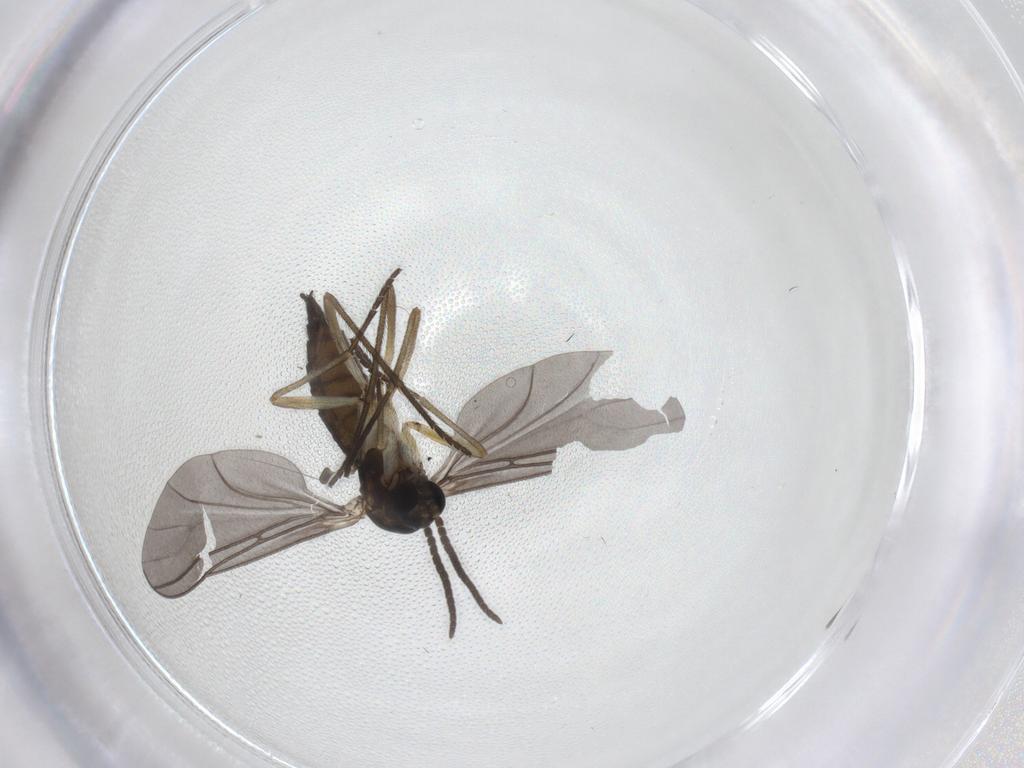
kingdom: Animalia
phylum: Arthropoda
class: Insecta
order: Diptera
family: Sciaridae
